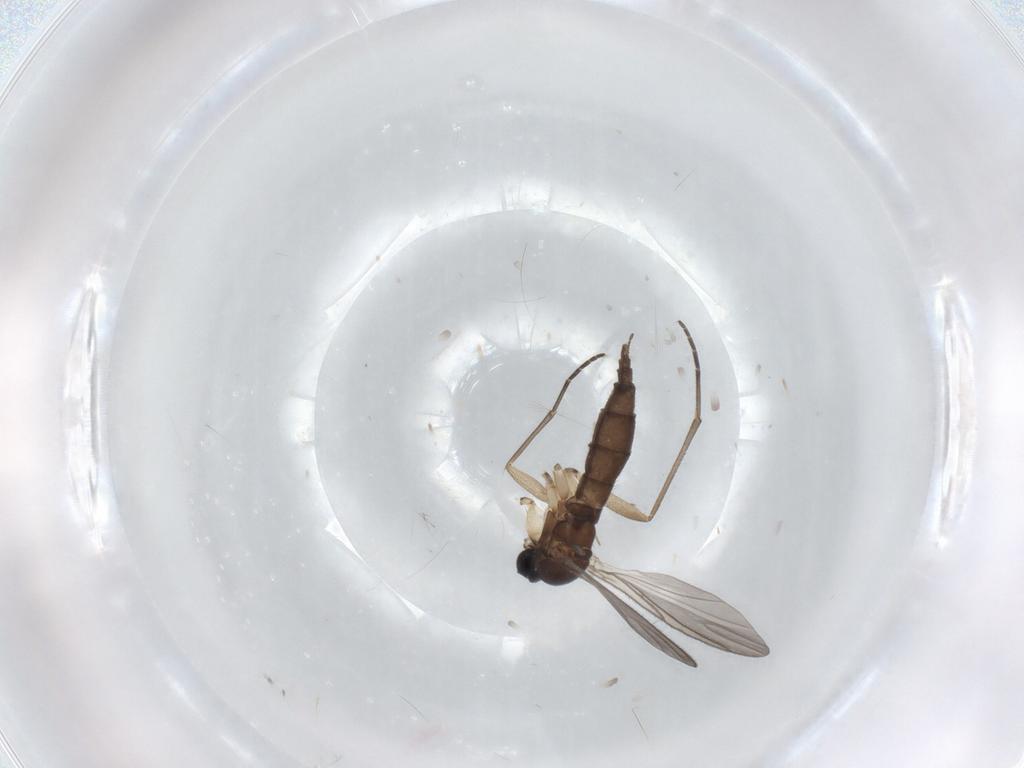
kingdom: Animalia
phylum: Arthropoda
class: Insecta
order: Diptera
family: Sciaridae
